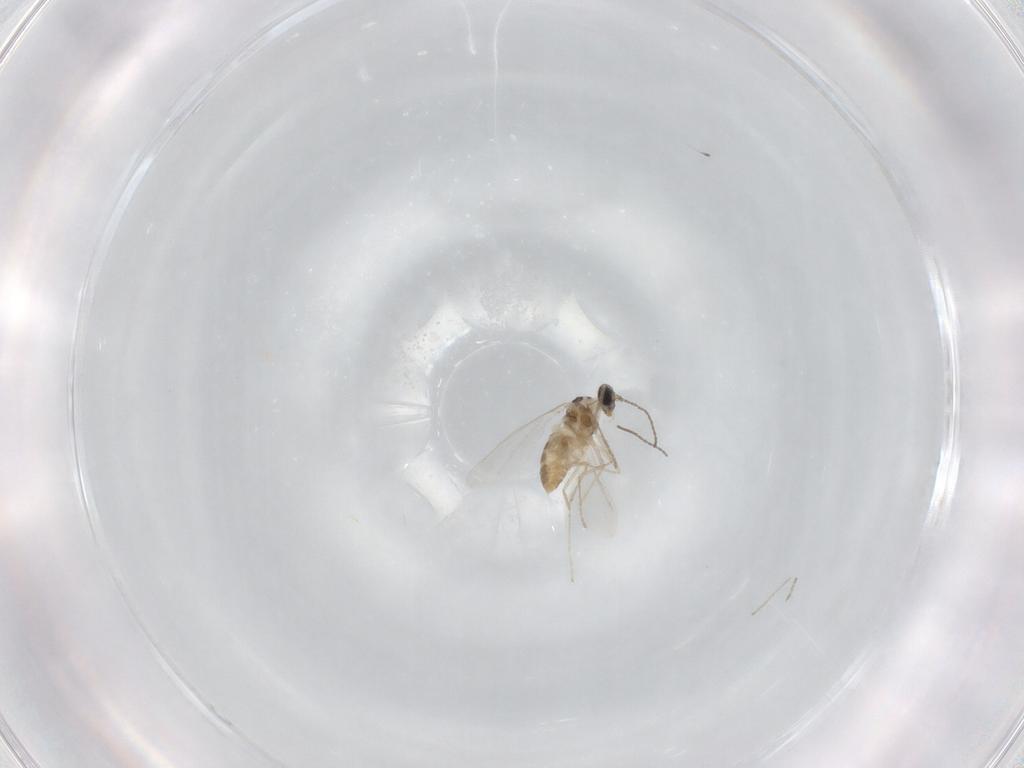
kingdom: Animalia
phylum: Arthropoda
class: Insecta
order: Diptera
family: Cecidomyiidae
